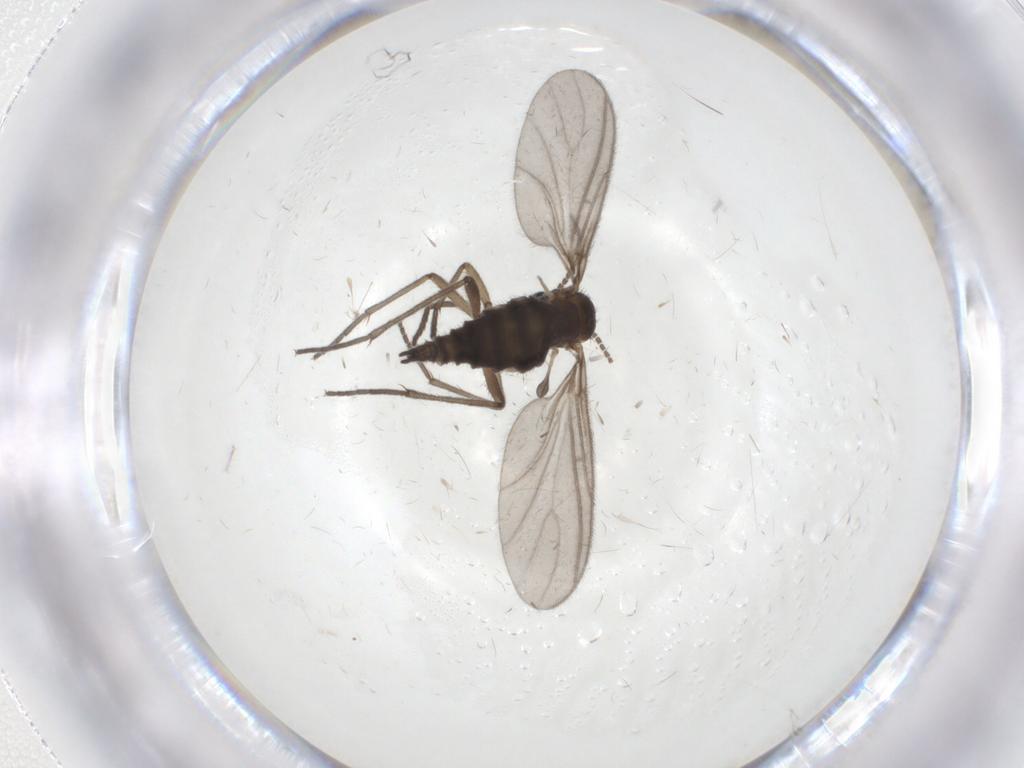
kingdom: Animalia
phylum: Arthropoda
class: Insecta
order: Diptera
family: Sciaridae
